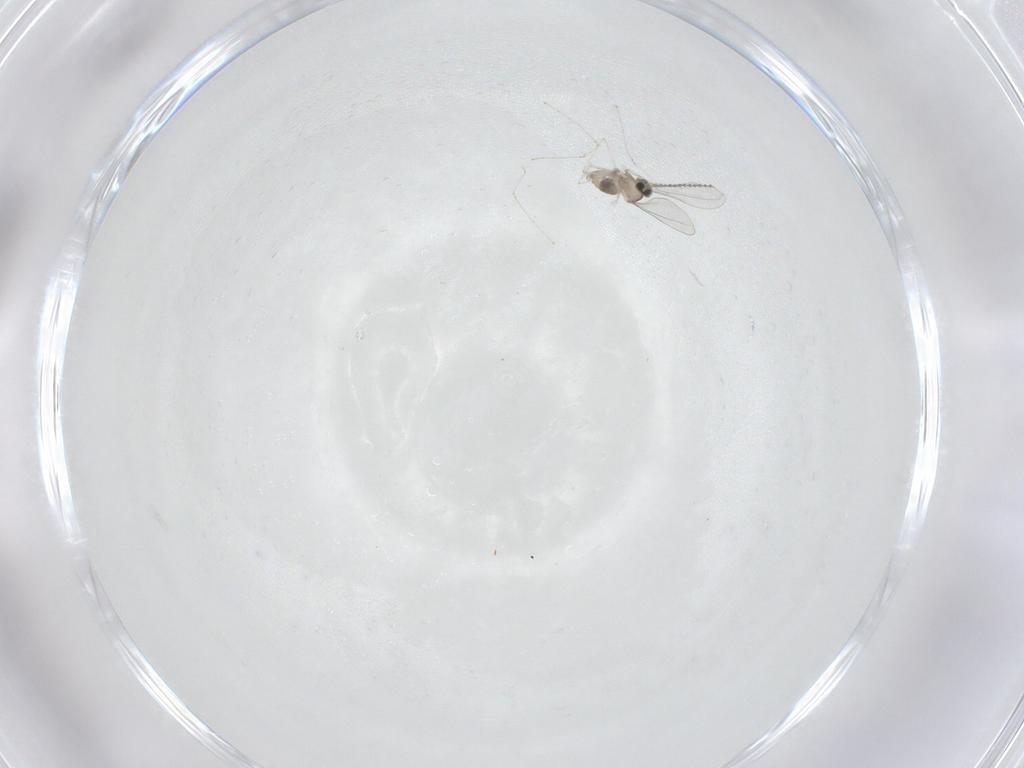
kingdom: Animalia
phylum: Arthropoda
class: Insecta
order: Diptera
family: Cecidomyiidae
